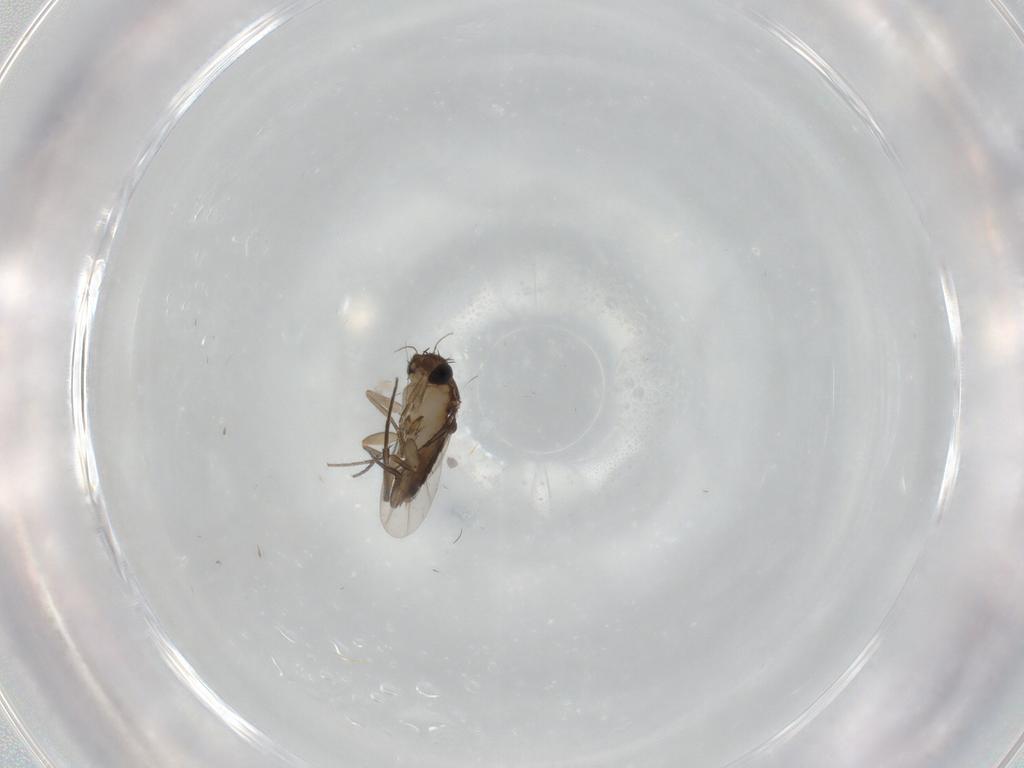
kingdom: Animalia
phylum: Arthropoda
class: Insecta
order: Diptera
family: Phoridae
